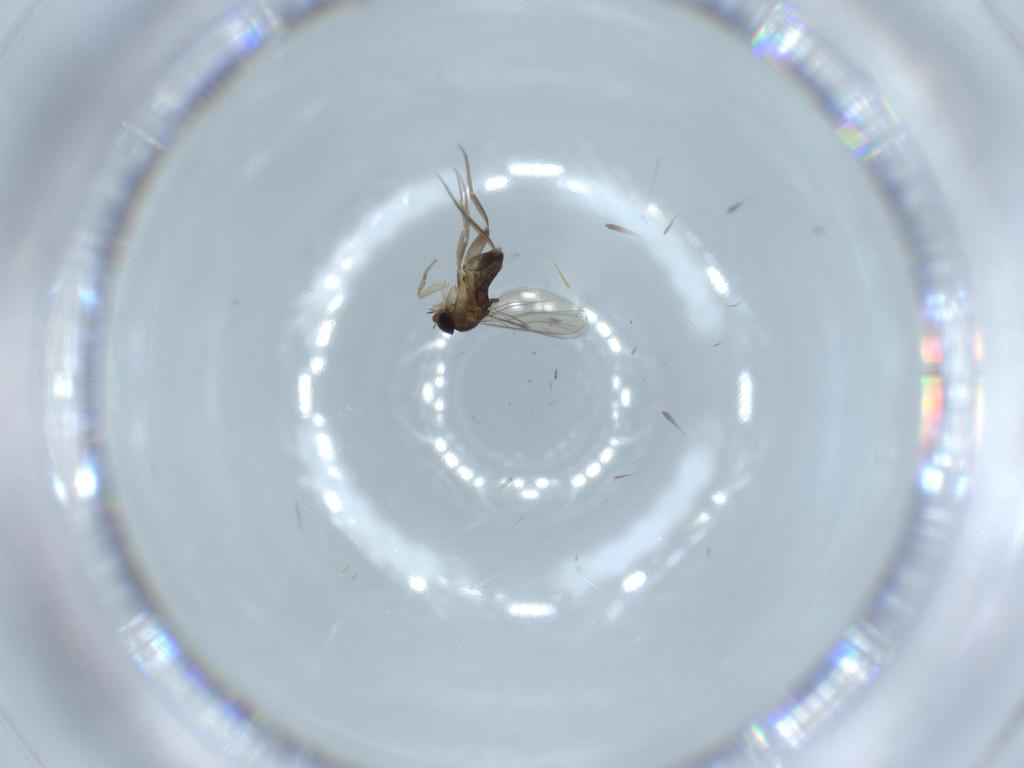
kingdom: Animalia
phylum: Arthropoda
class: Insecta
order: Diptera
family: Phoridae
